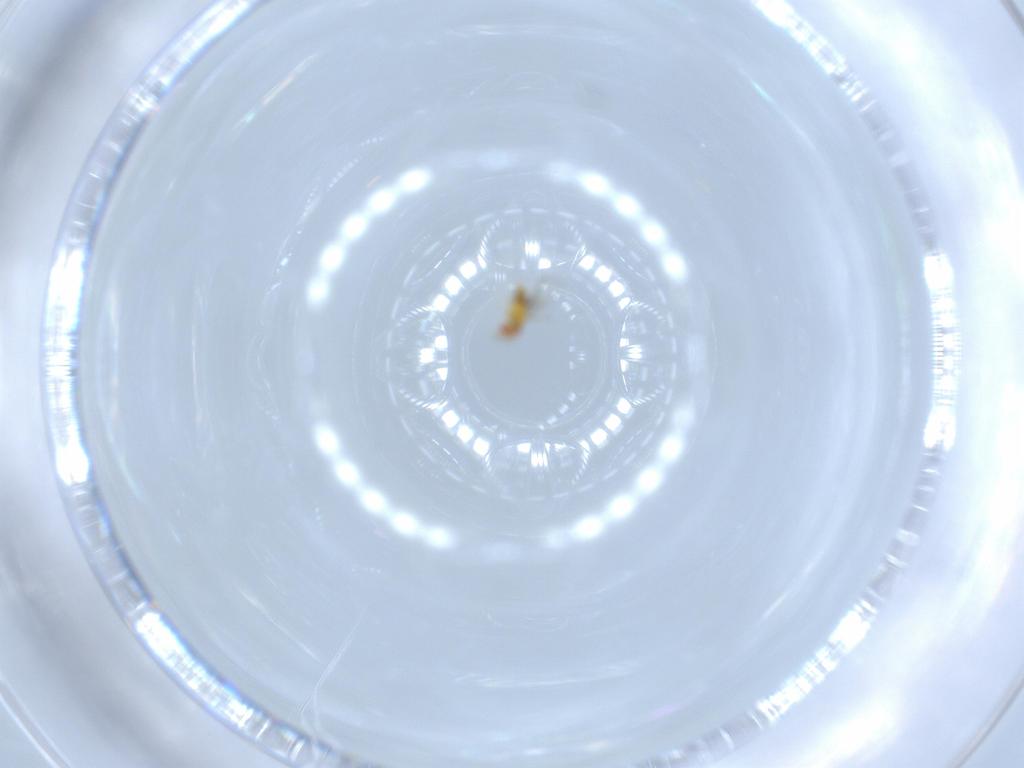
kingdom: Animalia
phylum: Arthropoda
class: Insecta
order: Hymenoptera
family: Trichogrammatidae
